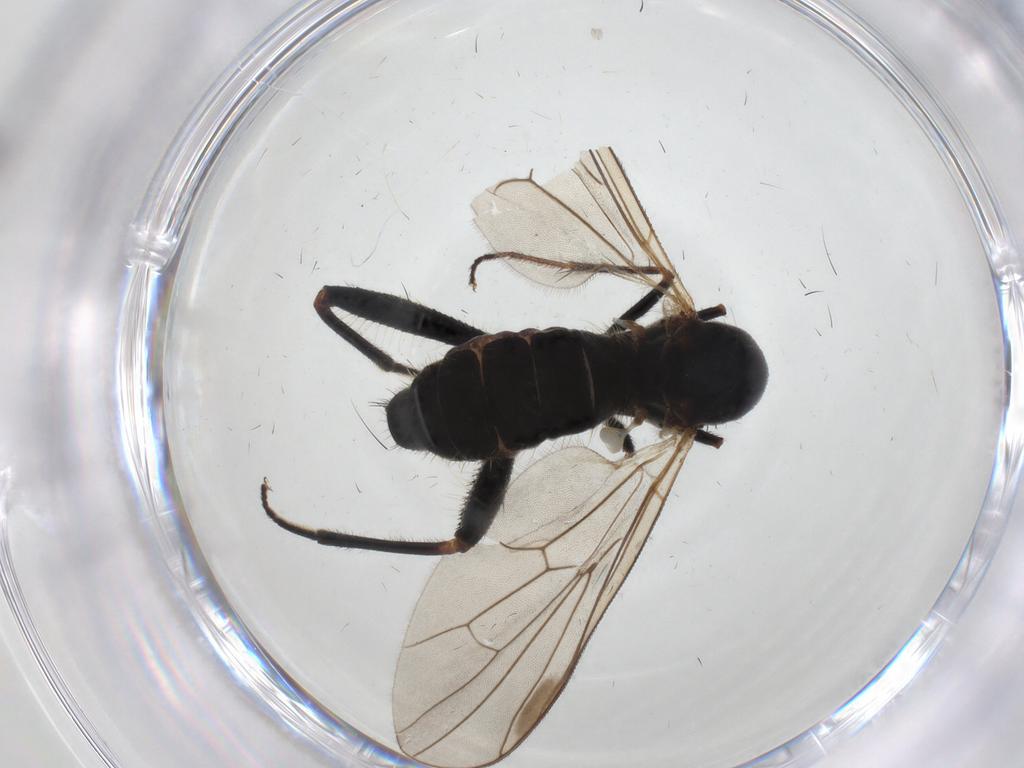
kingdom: Animalia
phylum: Arthropoda
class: Insecta
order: Diptera
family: Hybotidae
